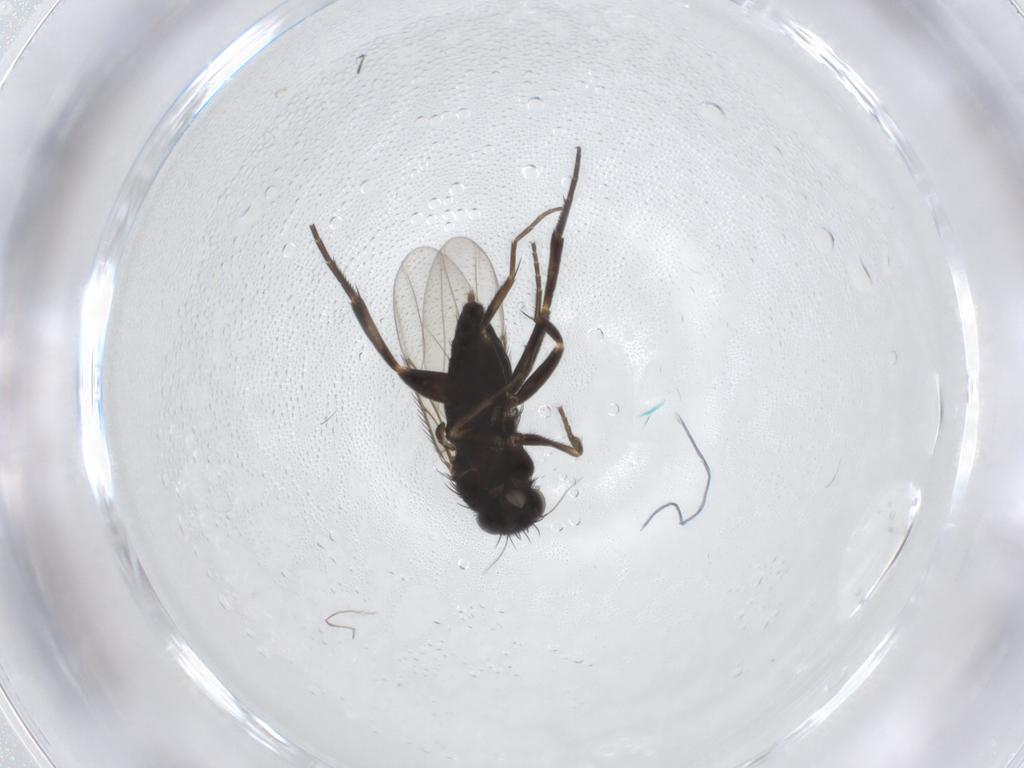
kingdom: Animalia
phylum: Arthropoda
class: Insecta
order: Diptera
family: Phoridae
